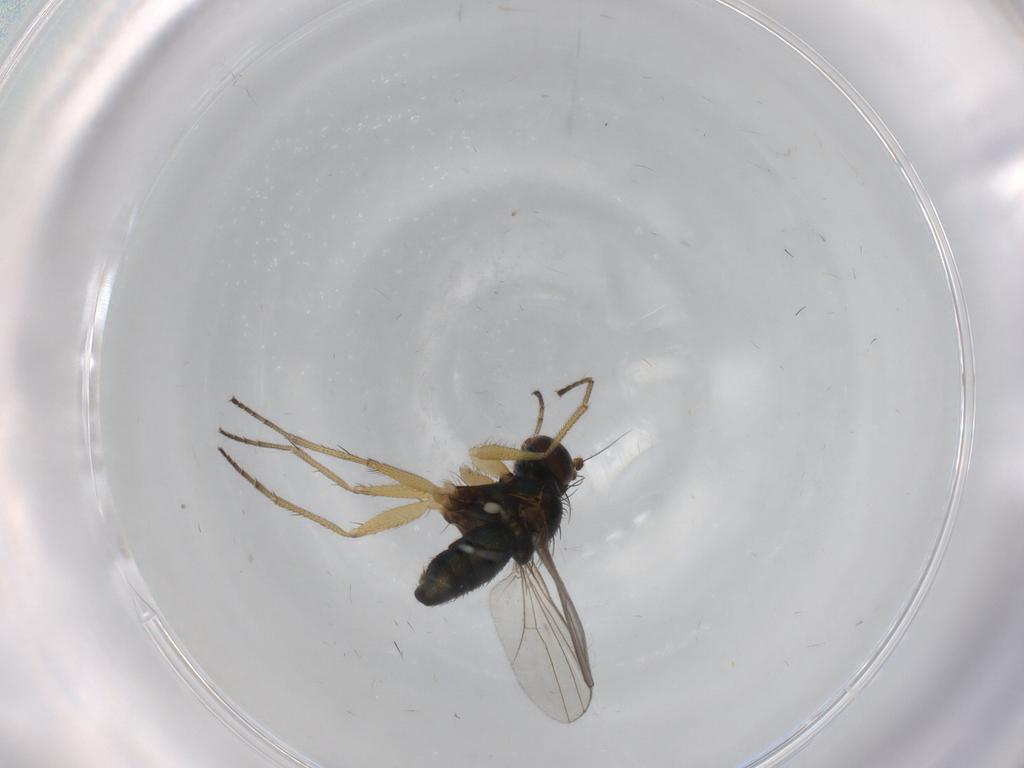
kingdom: Animalia
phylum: Arthropoda
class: Insecta
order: Diptera
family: Dolichopodidae
